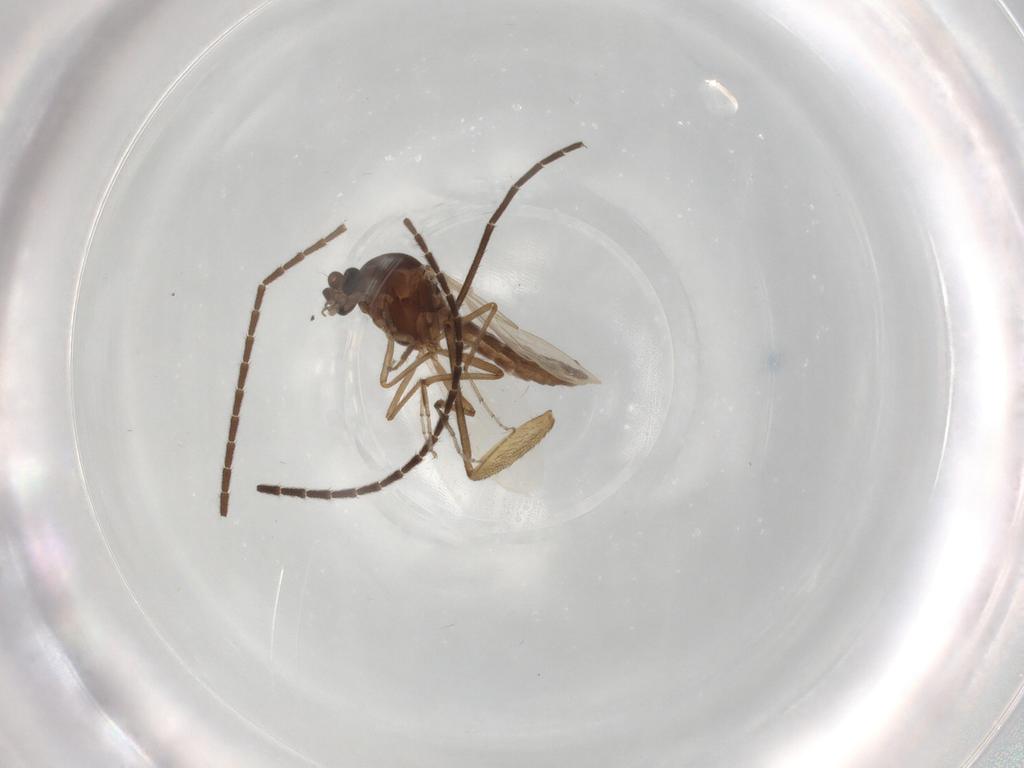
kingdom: Animalia
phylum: Arthropoda
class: Insecta
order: Diptera
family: Ceratopogonidae
